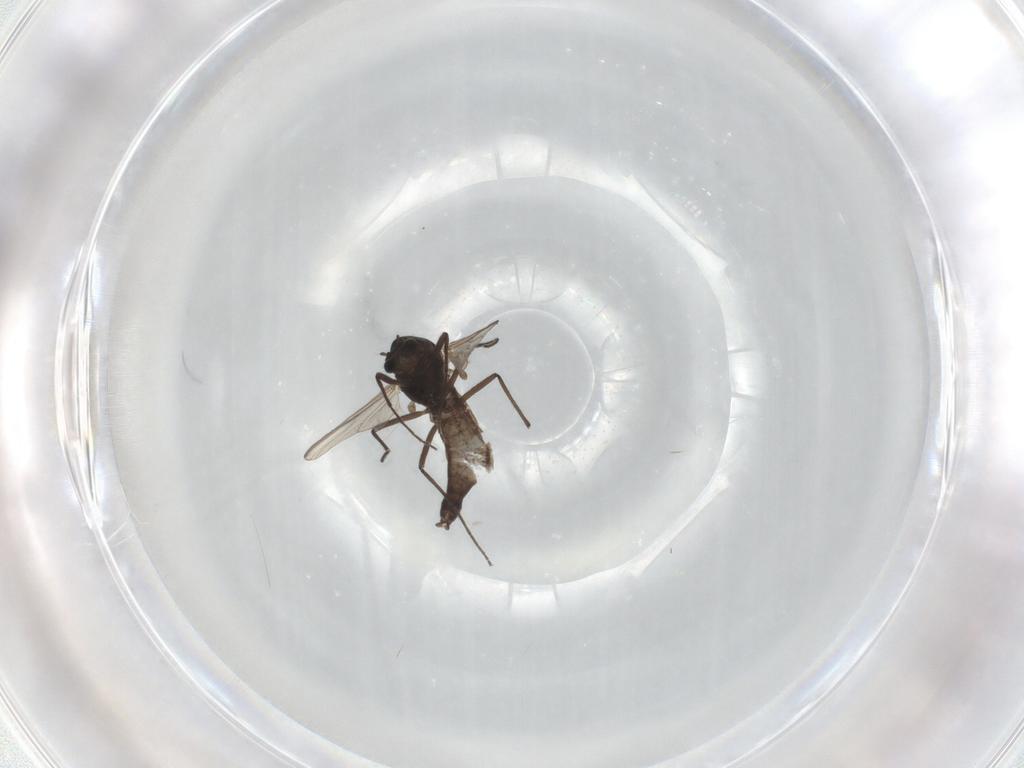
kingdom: Animalia
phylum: Arthropoda
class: Insecta
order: Diptera
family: Chironomidae
